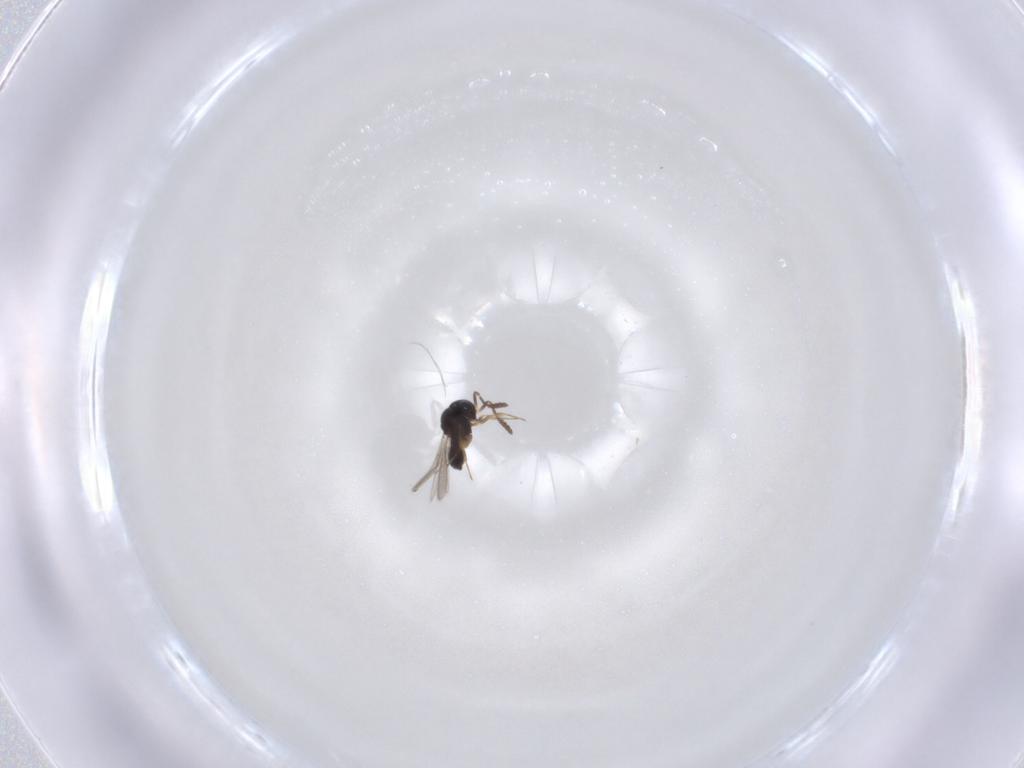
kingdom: Animalia
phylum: Arthropoda
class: Insecta
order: Hymenoptera
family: Scelionidae
